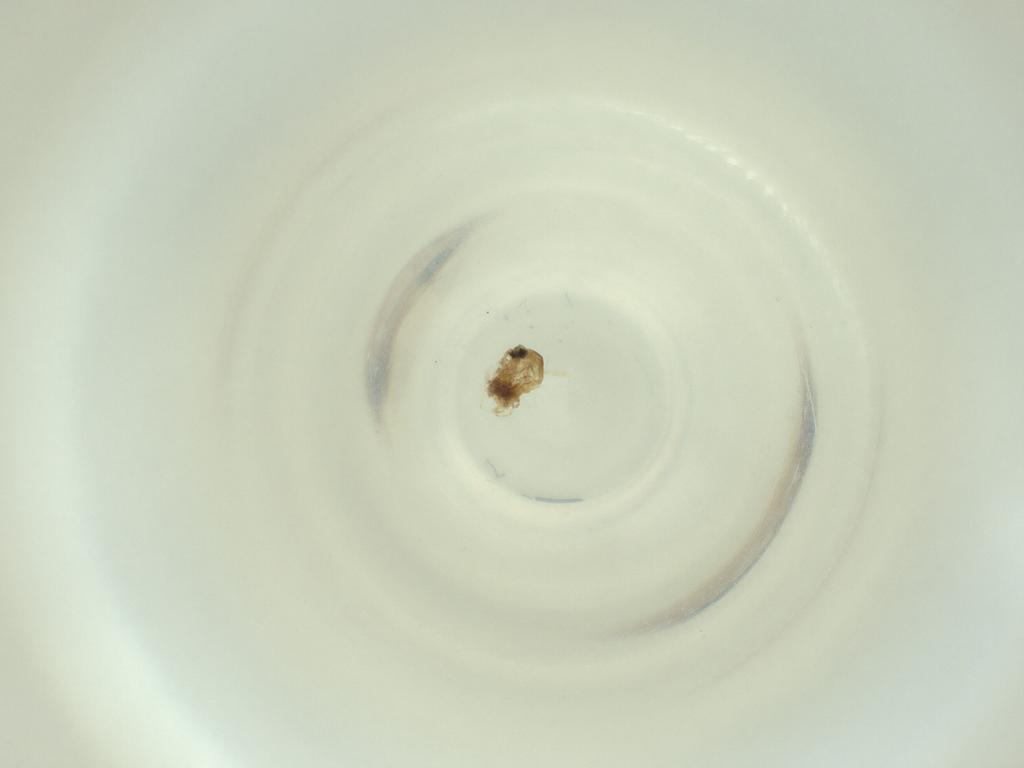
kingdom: Animalia
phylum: Arthropoda
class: Insecta
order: Diptera
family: Cecidomyiidae
